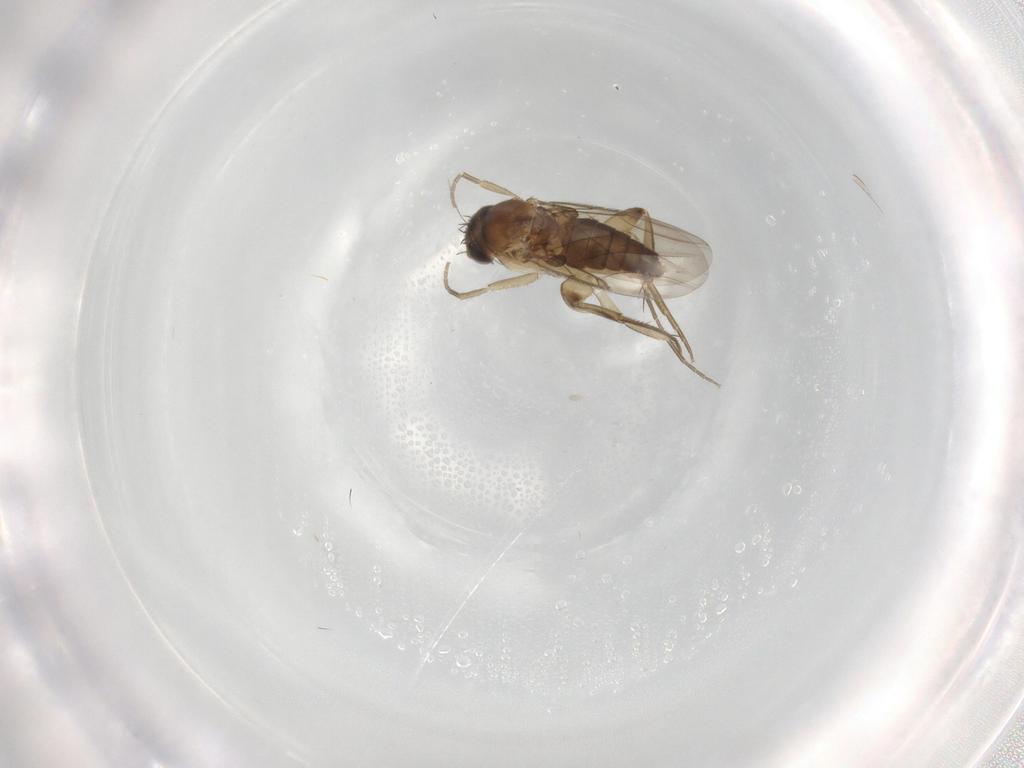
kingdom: Animalia
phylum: Arthropoda
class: Insecta
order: Diptera
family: Phoridae
